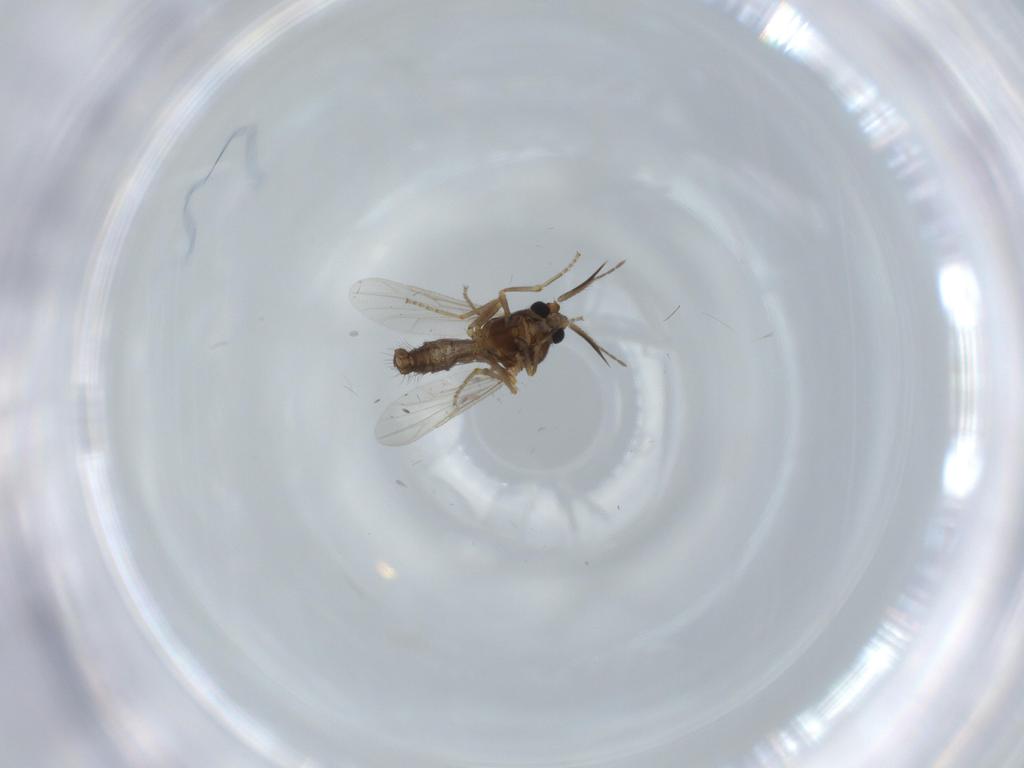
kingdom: Animalia
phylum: Arthropoda
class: Insecta
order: Diptera
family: Ceratopogonidae
